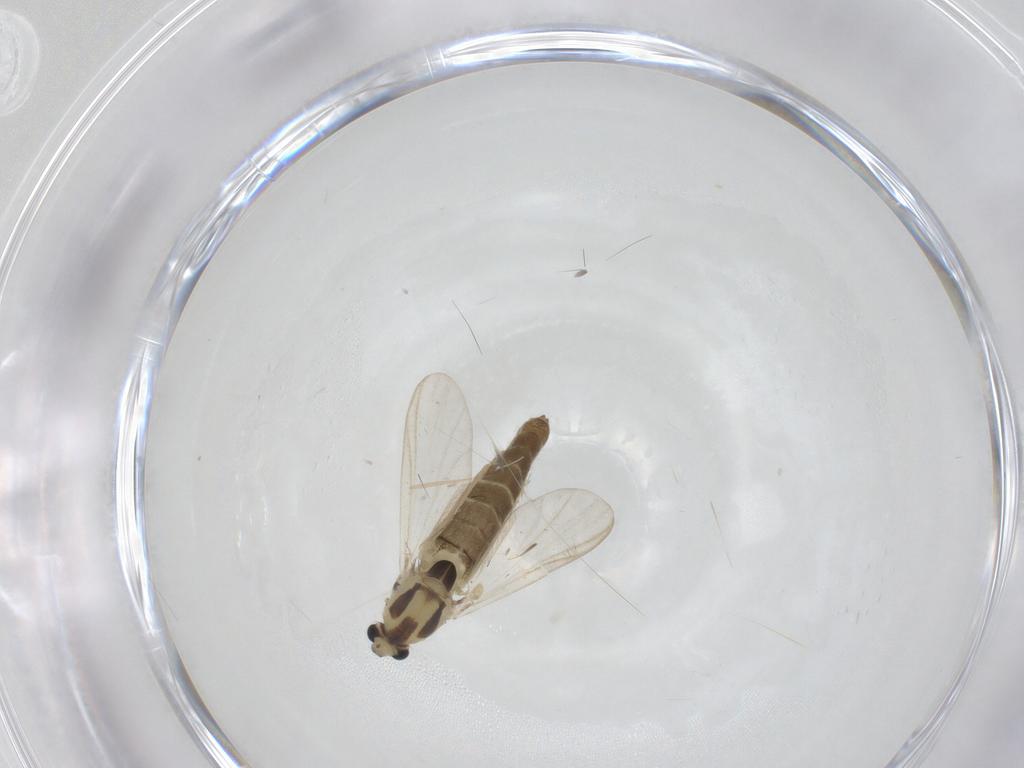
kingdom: Animalia
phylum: Arthropoda
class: Insecta
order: Diptera
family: Chironomidae
